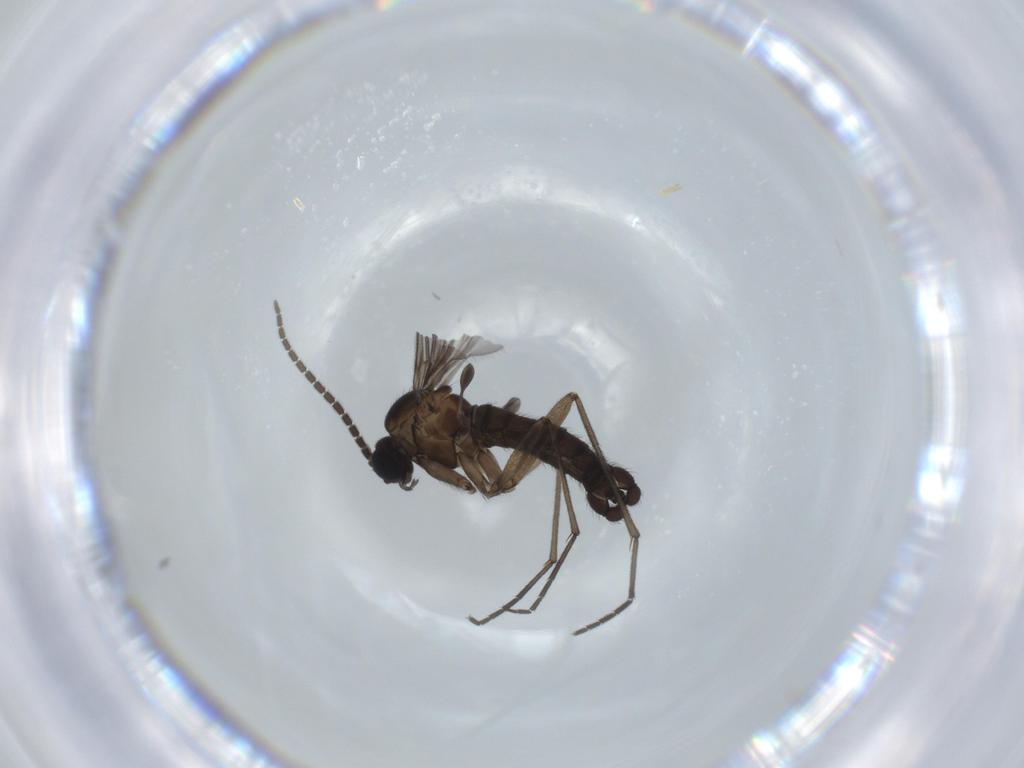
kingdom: Animalia
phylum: Arthropoda
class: Insecta
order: Diptera
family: Sciaridae
